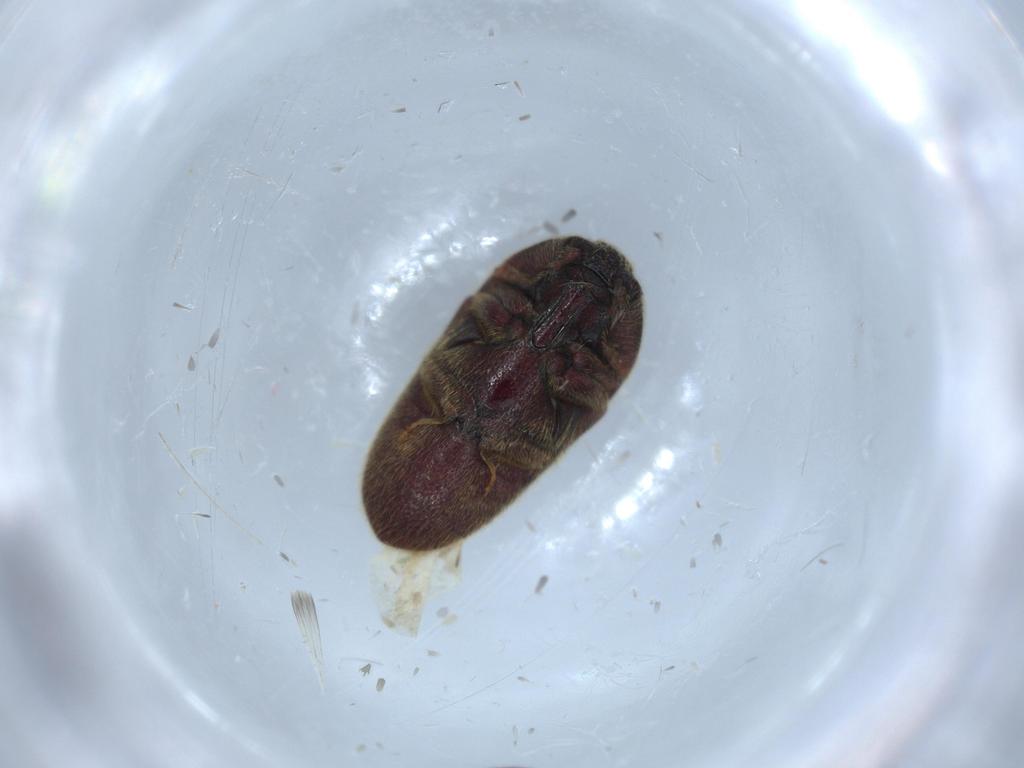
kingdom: Animalia
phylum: Arthropoda
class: Insecta
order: Coleoptera
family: Throscidae
